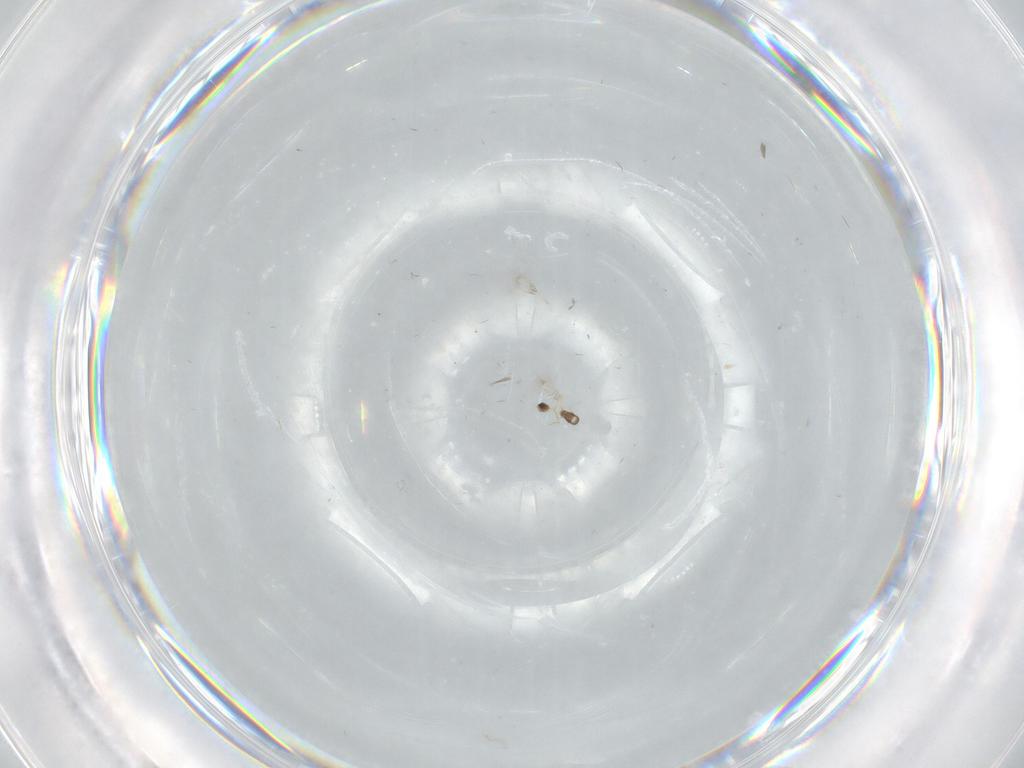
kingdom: Animalia
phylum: Arthropoda
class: Insecta
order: Diptera
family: Chironomidae
